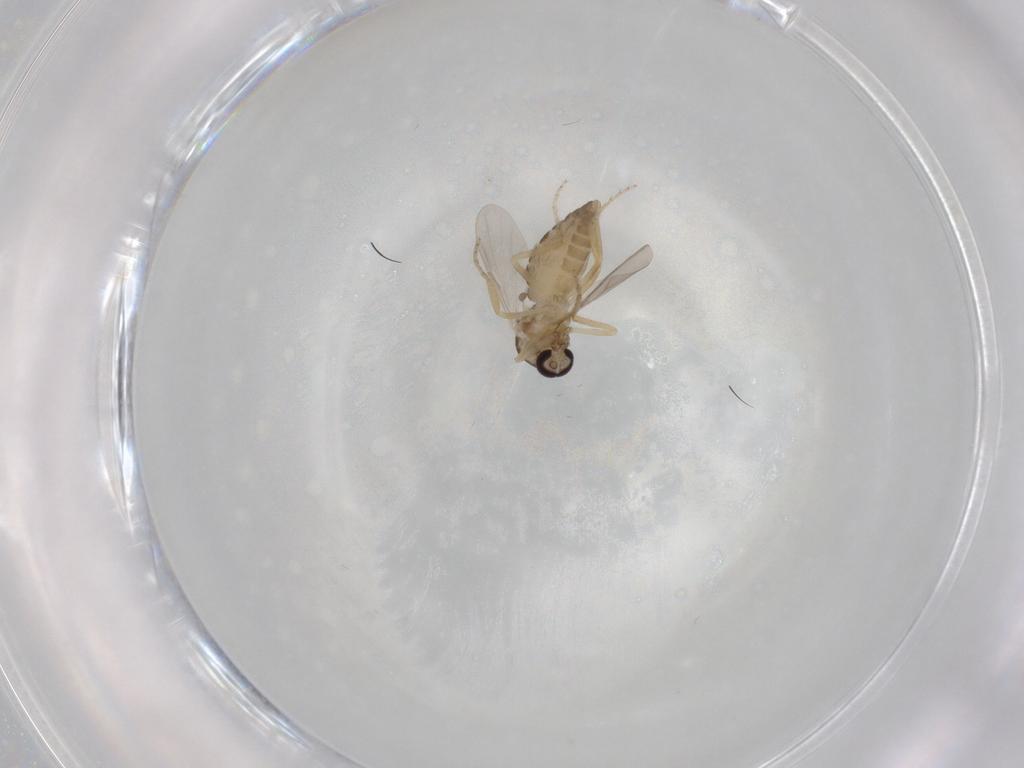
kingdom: Animalia
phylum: Arthropoda
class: Insecta
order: Diptera
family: Ceratopogonidae
